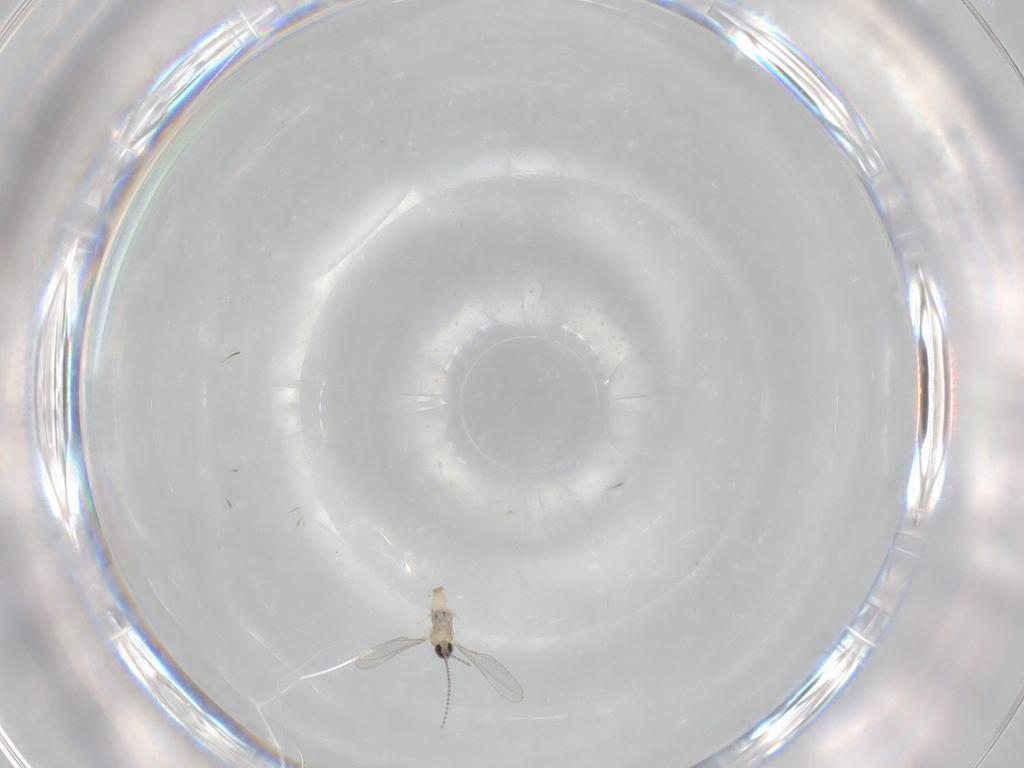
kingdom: Animalia
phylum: Arthropoda
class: Insecta
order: Diptera
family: Cecidomyiidae
